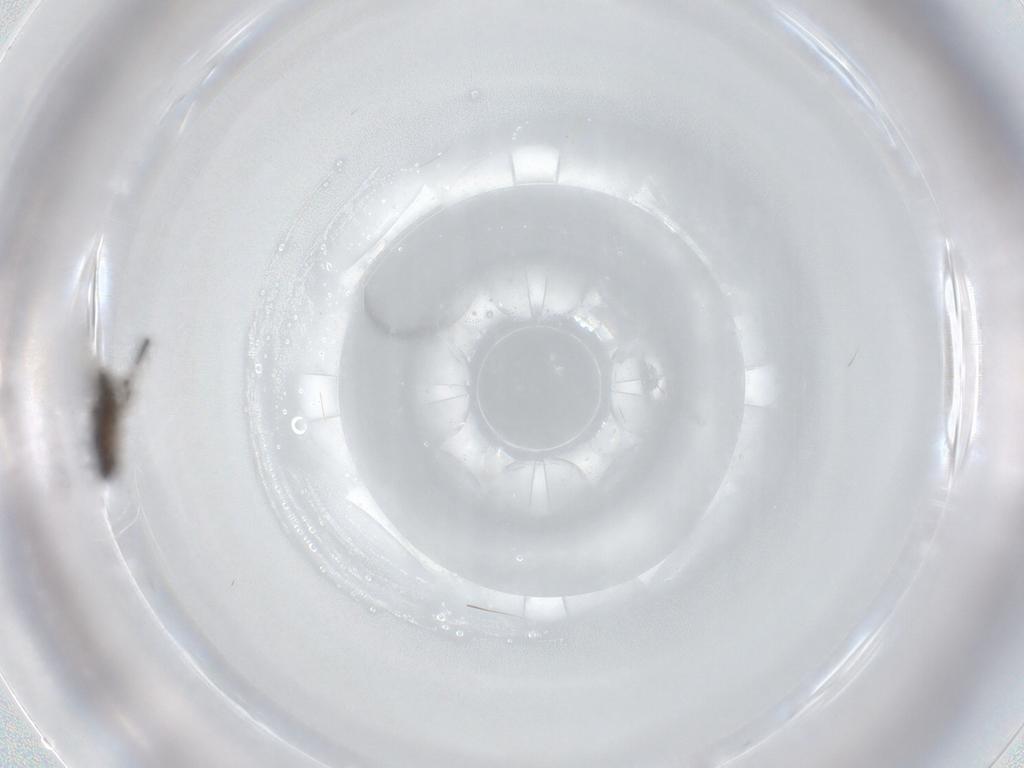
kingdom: Animalia
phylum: Arthropoda
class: Insecta
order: Diptera
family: Phoridae
